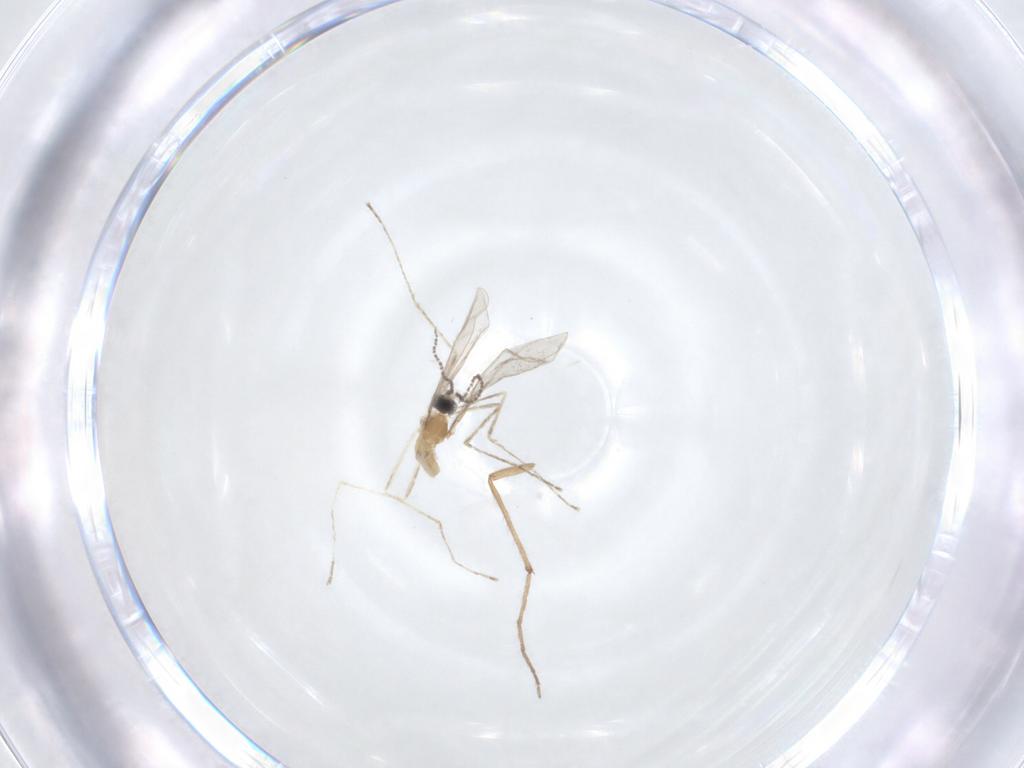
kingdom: Animalia
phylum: Arthropoda
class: Insecta
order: Diptera
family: Chironomidae
